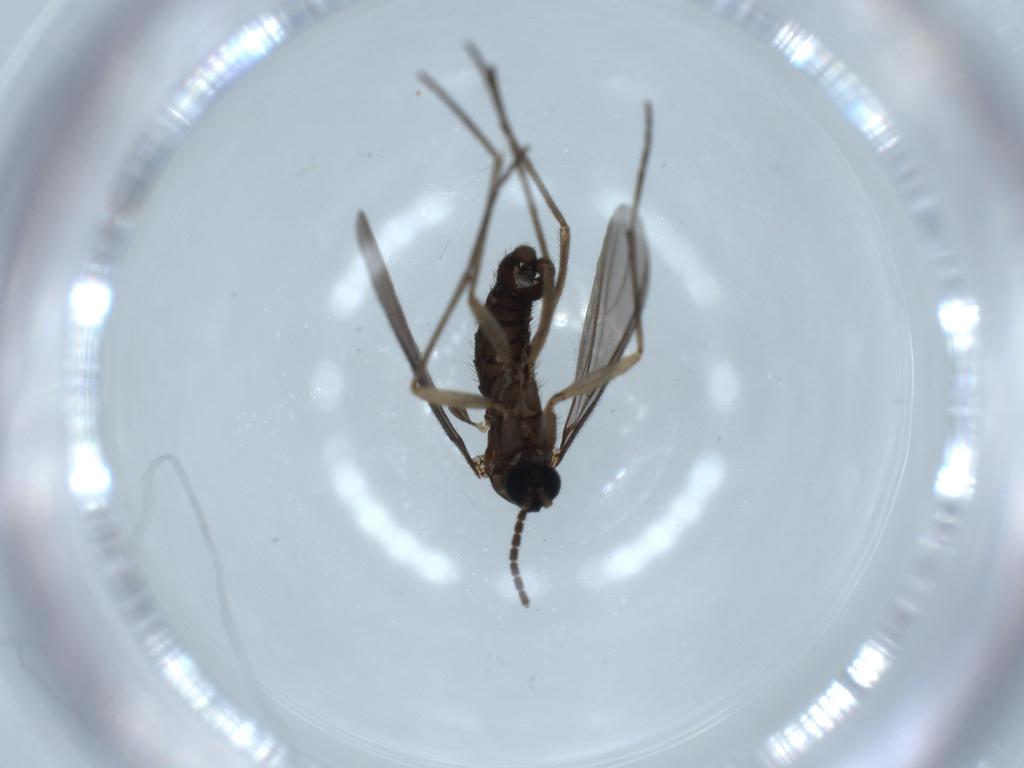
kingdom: Animalia
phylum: Arthropoda
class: Insecta
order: Diptera
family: Sciaridae
